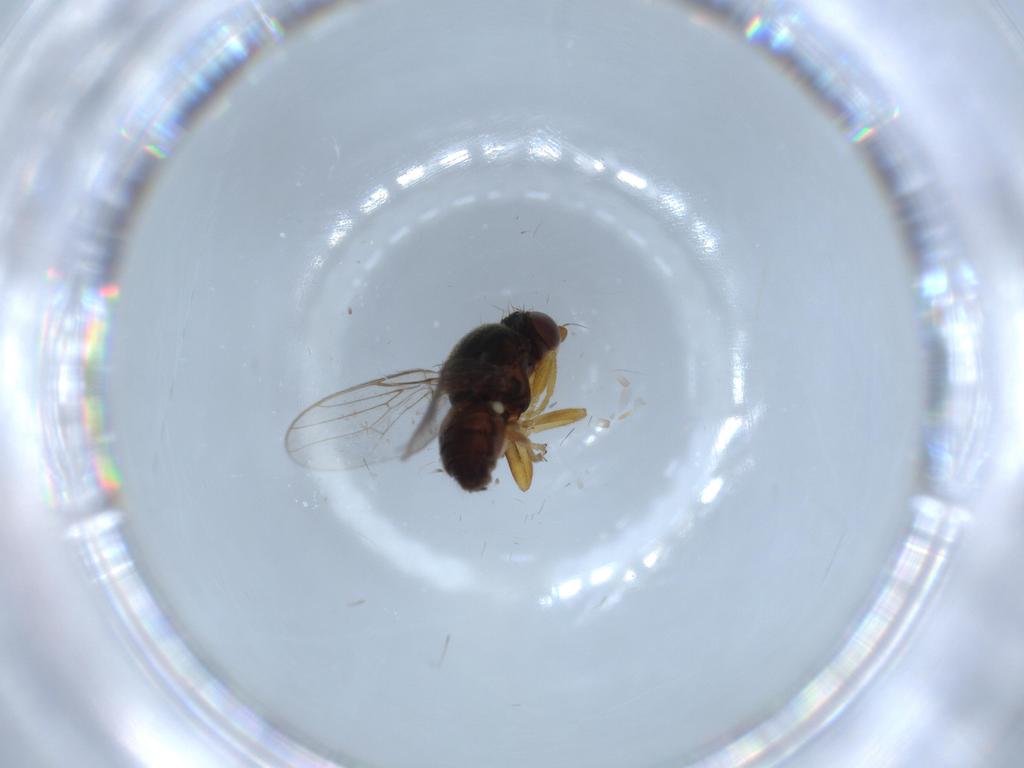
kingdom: Animalia
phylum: Arthropoda
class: Insecta
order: Diptera
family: Chloropidae
